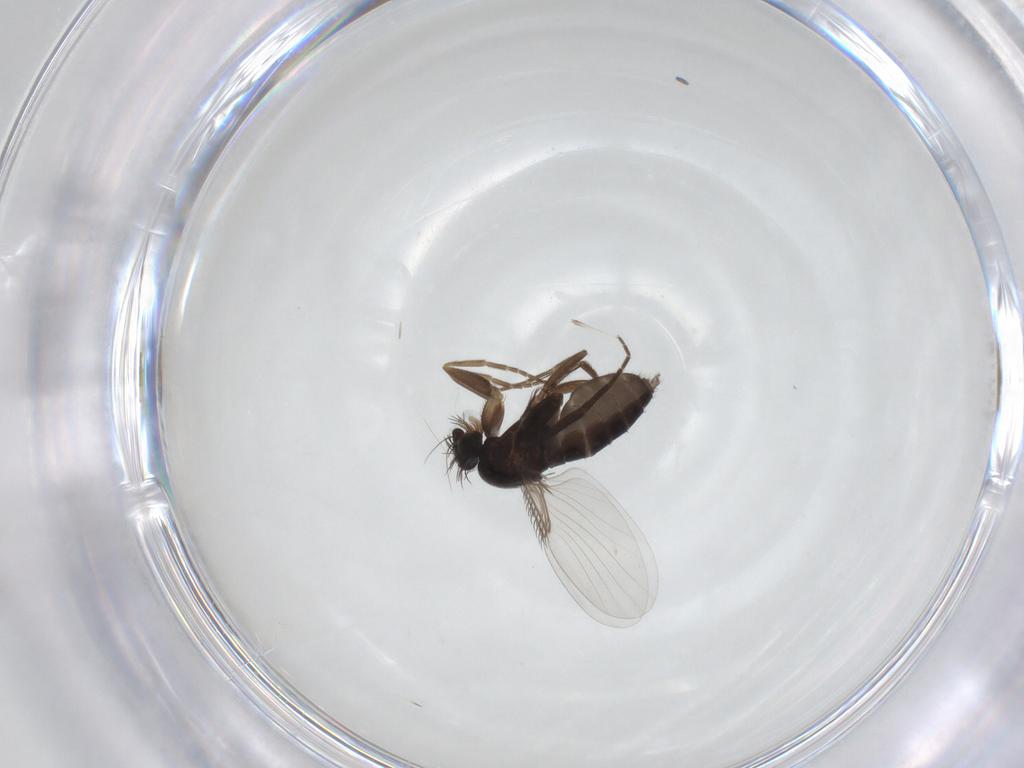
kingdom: Animalia
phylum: Arthropoda
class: Insecta
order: Diptera
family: Phoridae
